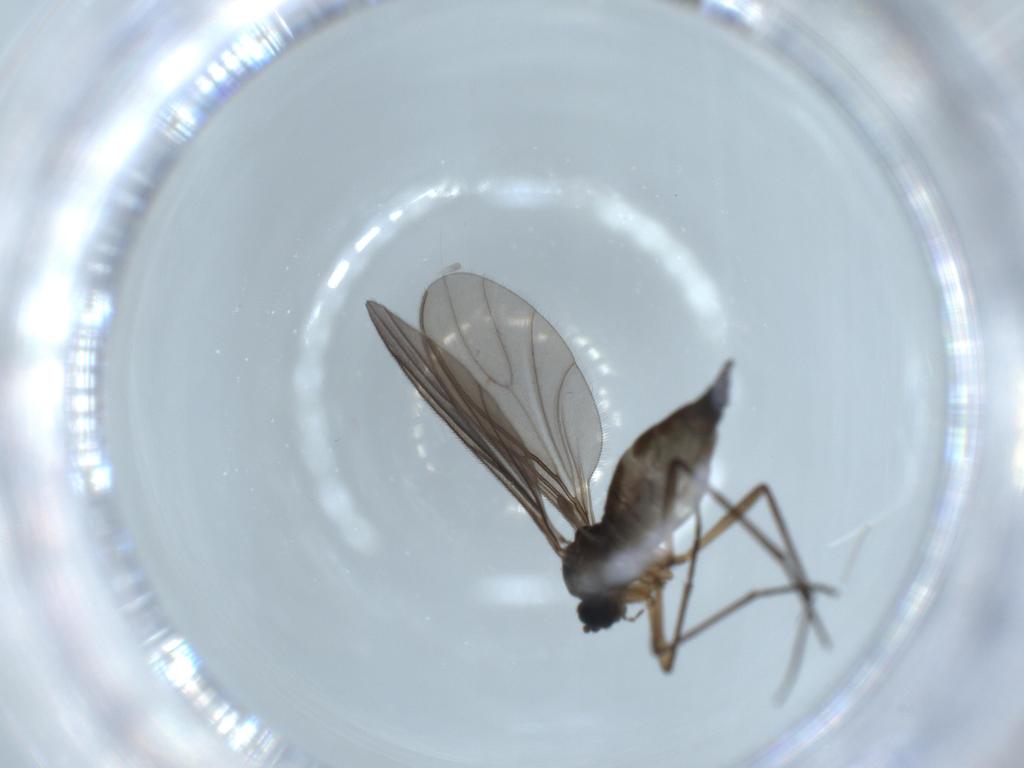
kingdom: Animalia
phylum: Arthropoda
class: Insecta
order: Diptera
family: Sciaridae
